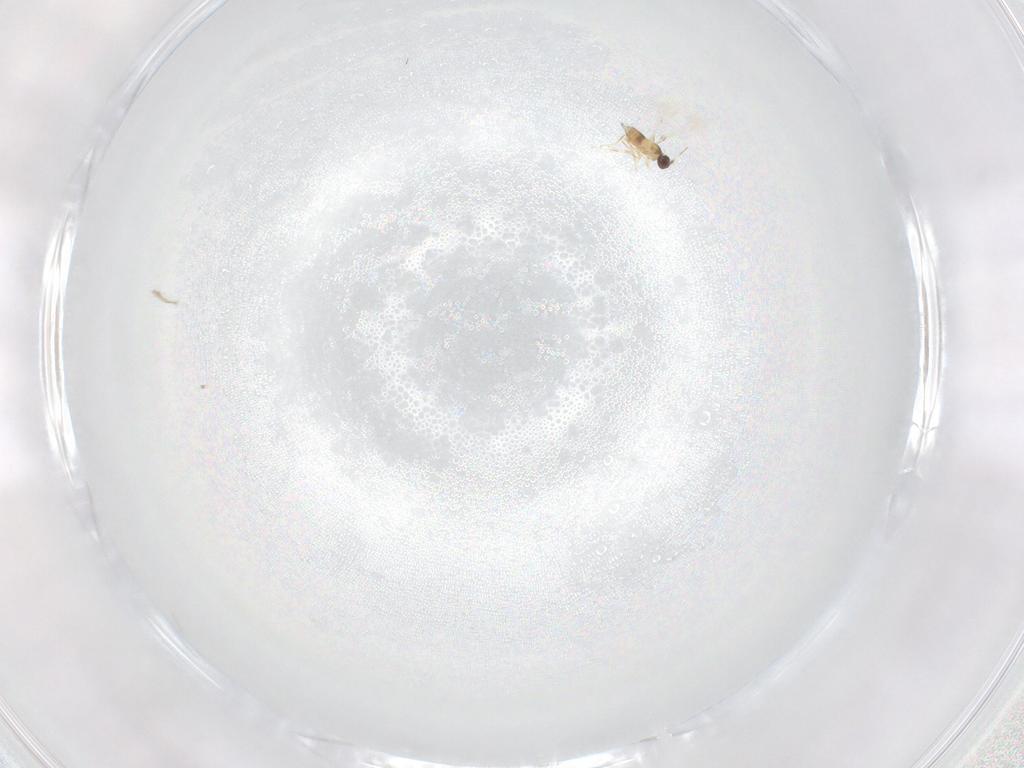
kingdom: Animalia
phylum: Arthropoda
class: Insecta
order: Hymenoptera
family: Mymaridae
